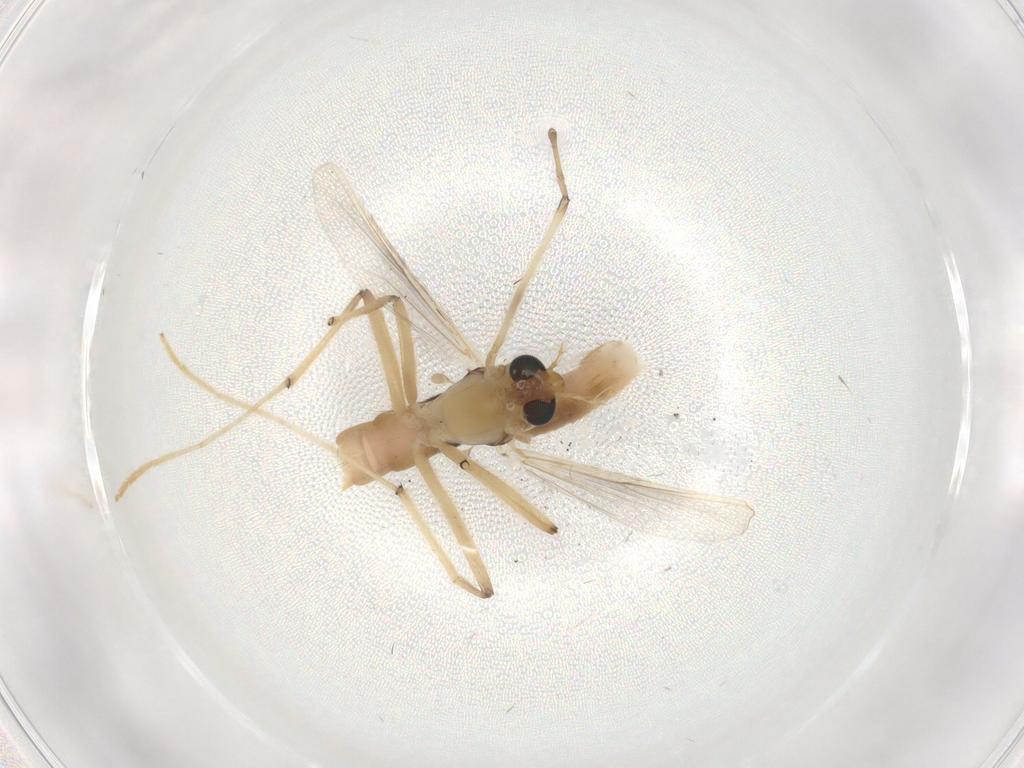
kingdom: Animalia
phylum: Arthropoda
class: Insecta
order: Diptera
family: Chironomidae
